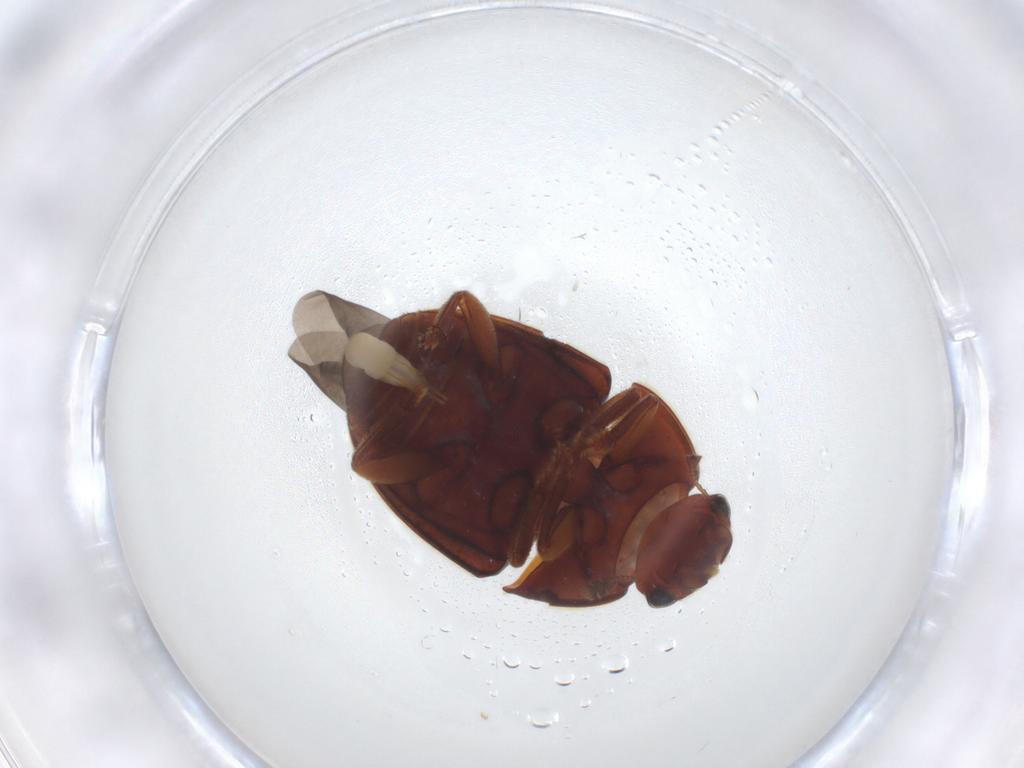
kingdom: Animalia
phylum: Arthropoda
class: Insecta
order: Coleoptera
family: Nitidulidae
